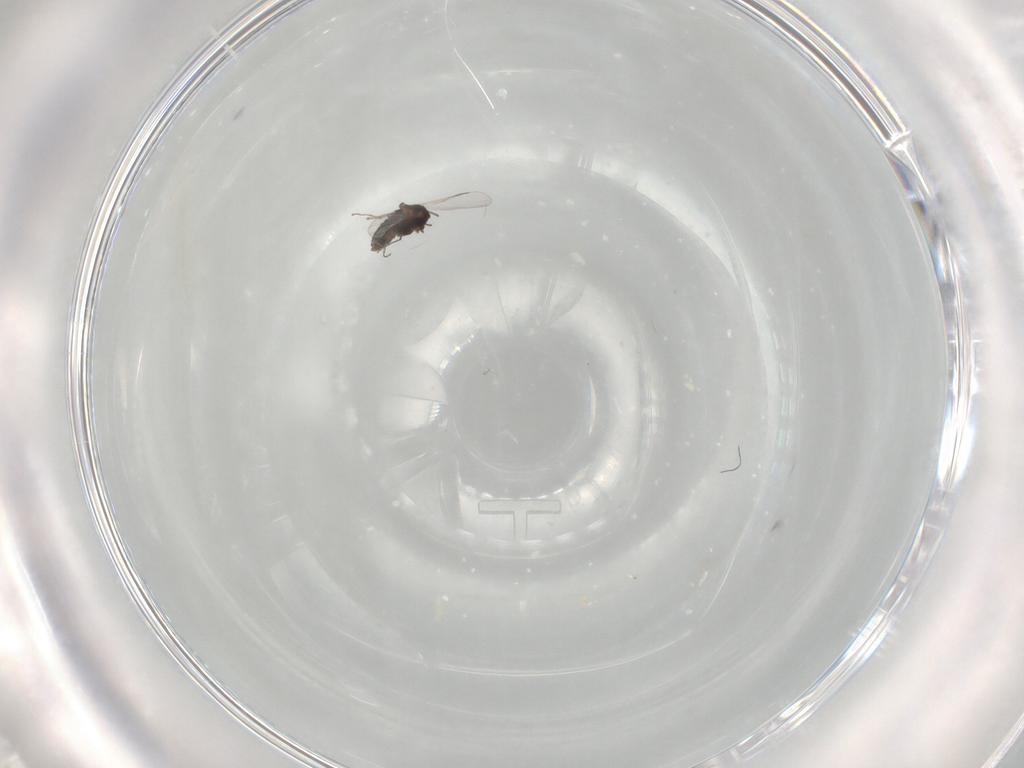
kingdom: Animalia
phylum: Arthropoda
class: Insecta
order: Diptera
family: Chironomidae
